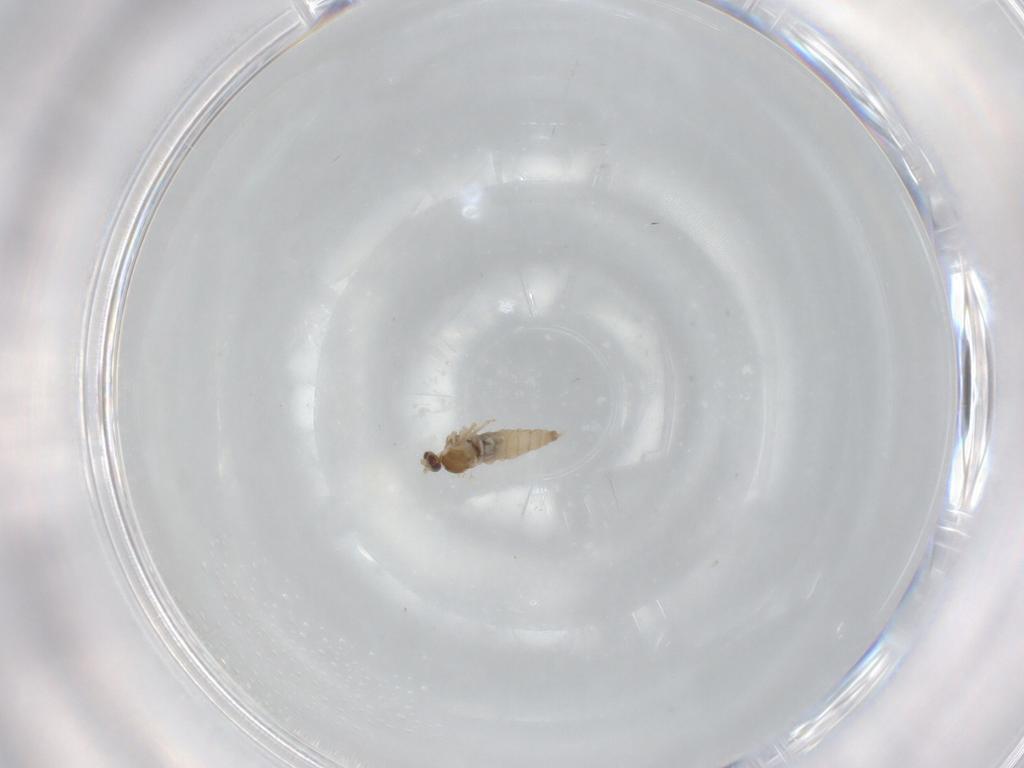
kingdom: Animalia
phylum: Arthropoda
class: Insecta
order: Diptera
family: Cecidomyiidae
